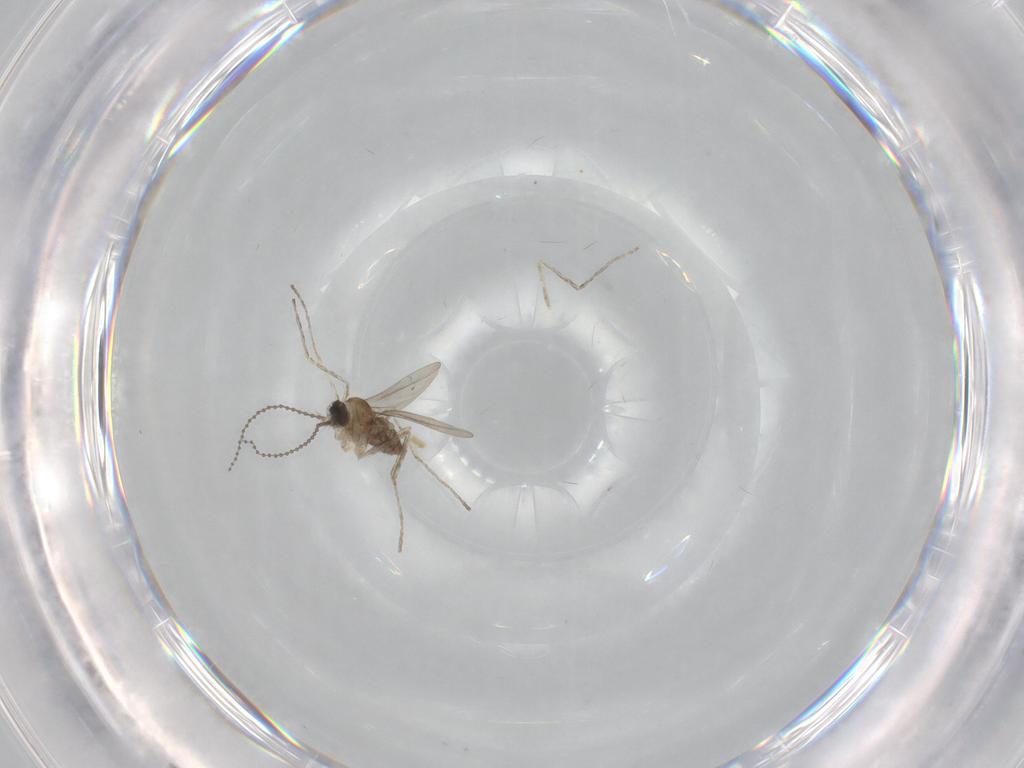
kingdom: Animalia
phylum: Arthropoda
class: Insecta
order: Diptera
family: Cecidomyiidae
